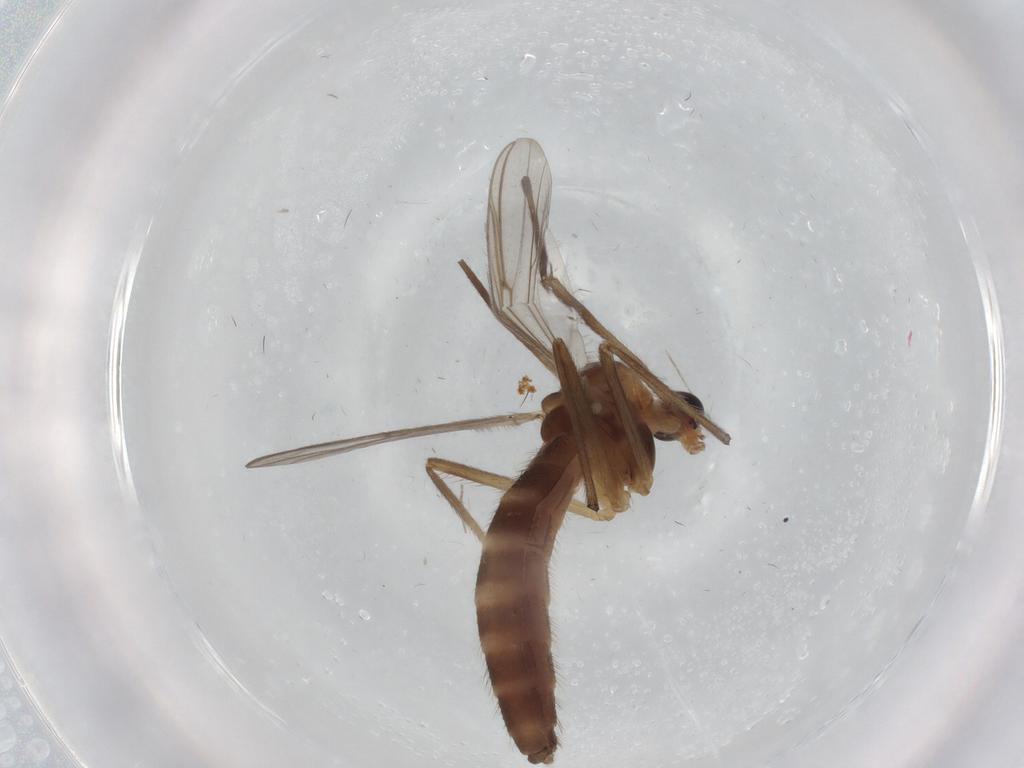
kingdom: Animalia
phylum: Arthropoda
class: Insecta
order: Diptera
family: Chironomidae
